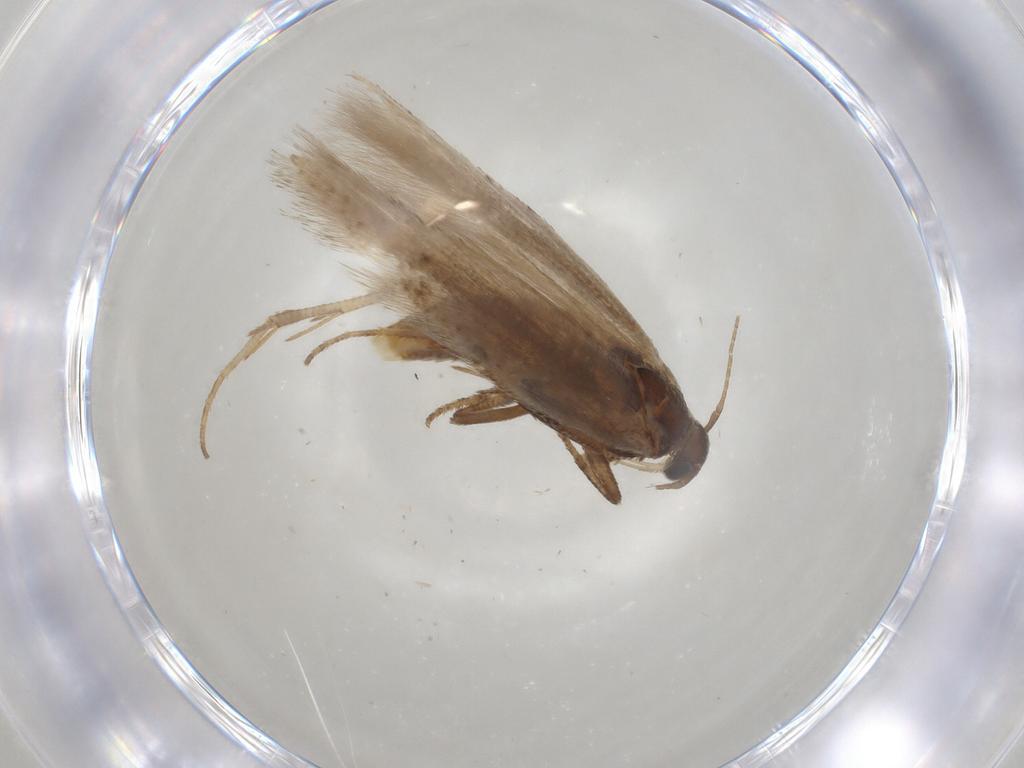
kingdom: Animalia
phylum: Arthropoda
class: Insecta
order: Lepidoptera
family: Gelechiidae
